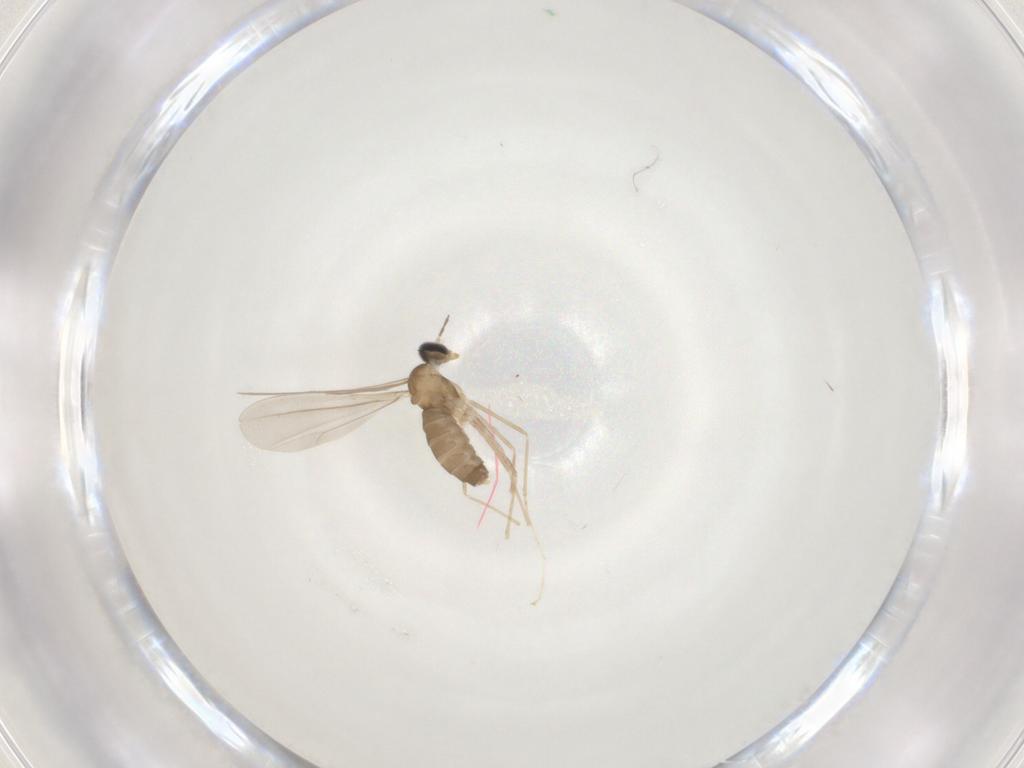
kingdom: Animalia
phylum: Arthropoda
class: Insecta
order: Diptera
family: Cecidomyiidae
